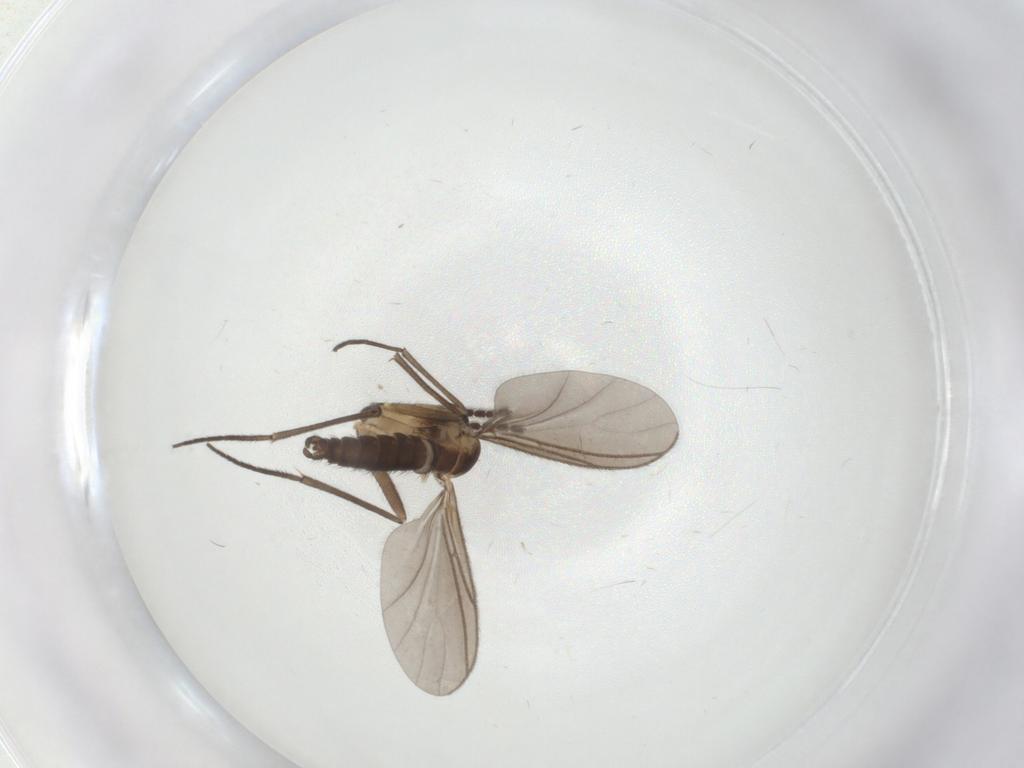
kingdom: Animalia
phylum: Arthropoda
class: Insecta
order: Diptera
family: Sciaridae
